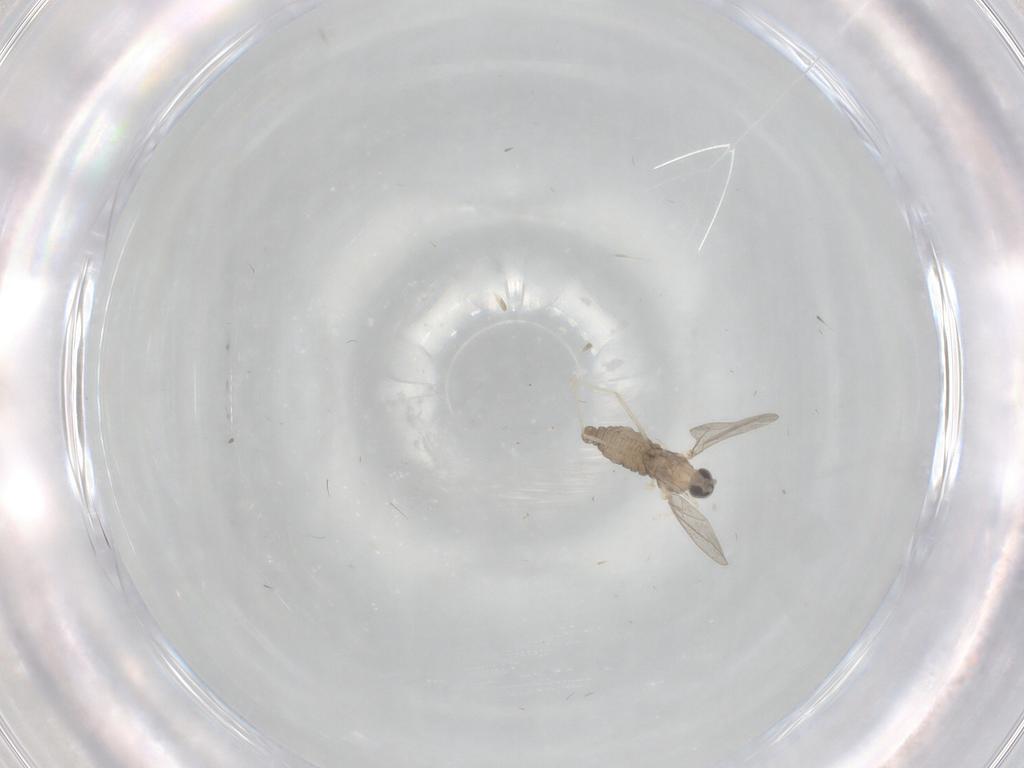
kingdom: Animalia
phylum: Arthropoda
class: Insecta
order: Diptera
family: Cecidomyiidae
